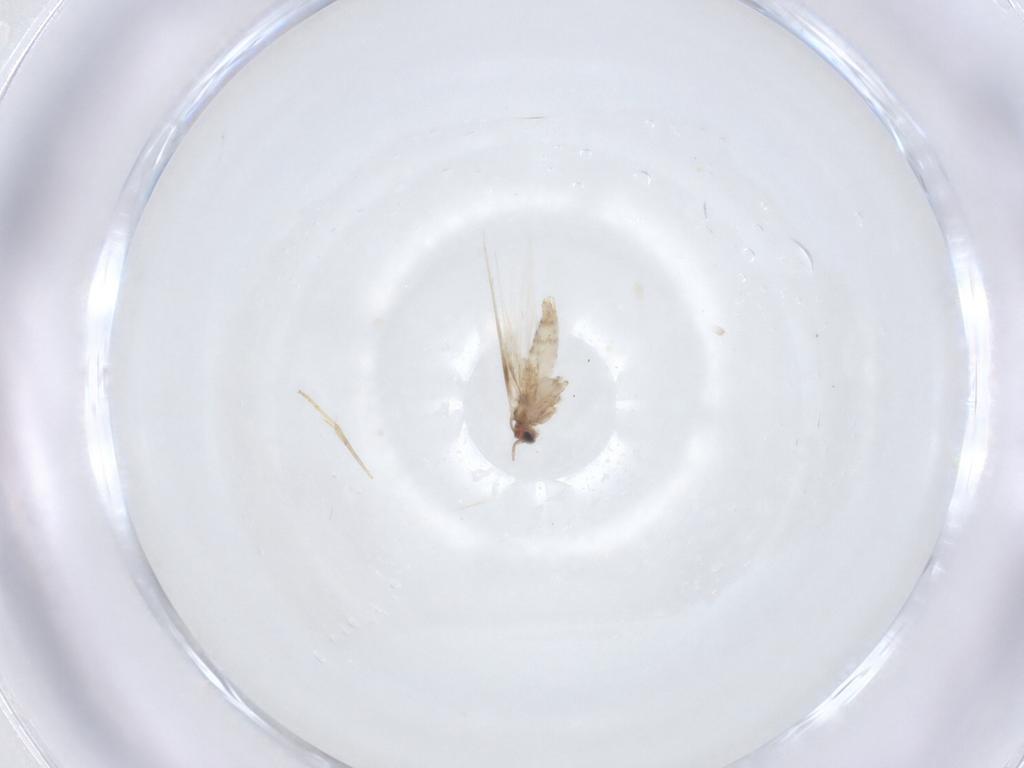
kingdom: Animalia
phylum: Arthropoda
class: Insecta
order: Lepidoptera
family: Nepticulidae
